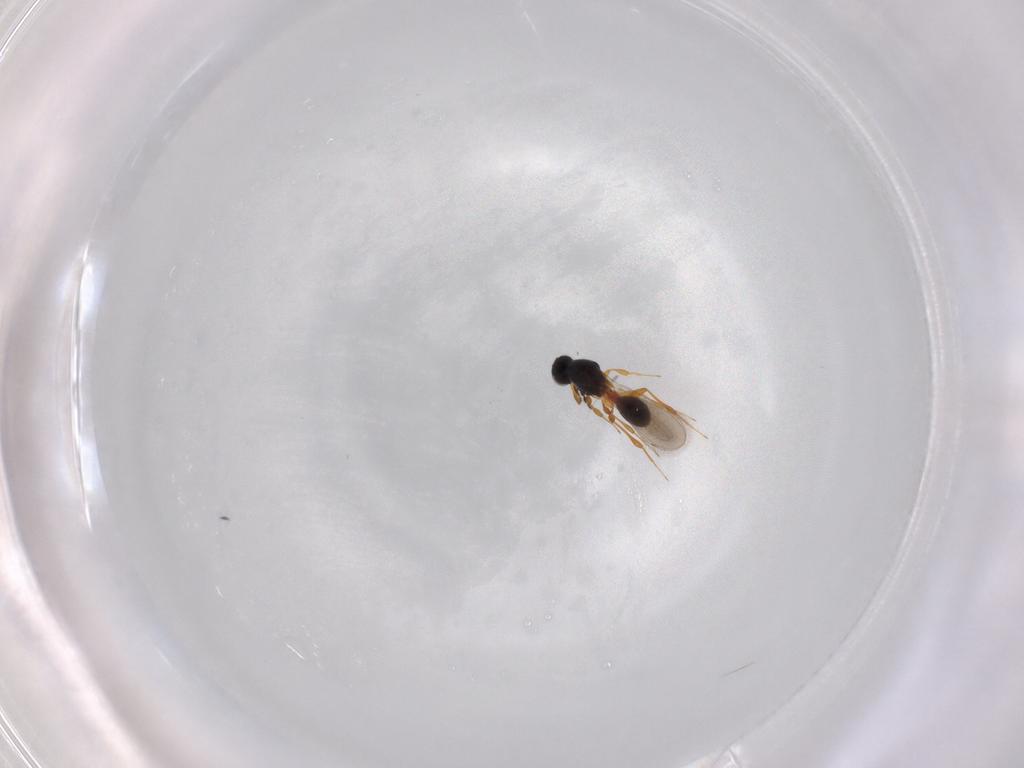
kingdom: Animalia
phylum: Arthropoda
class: Insecta
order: Hymenoptera
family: Platygastridae
